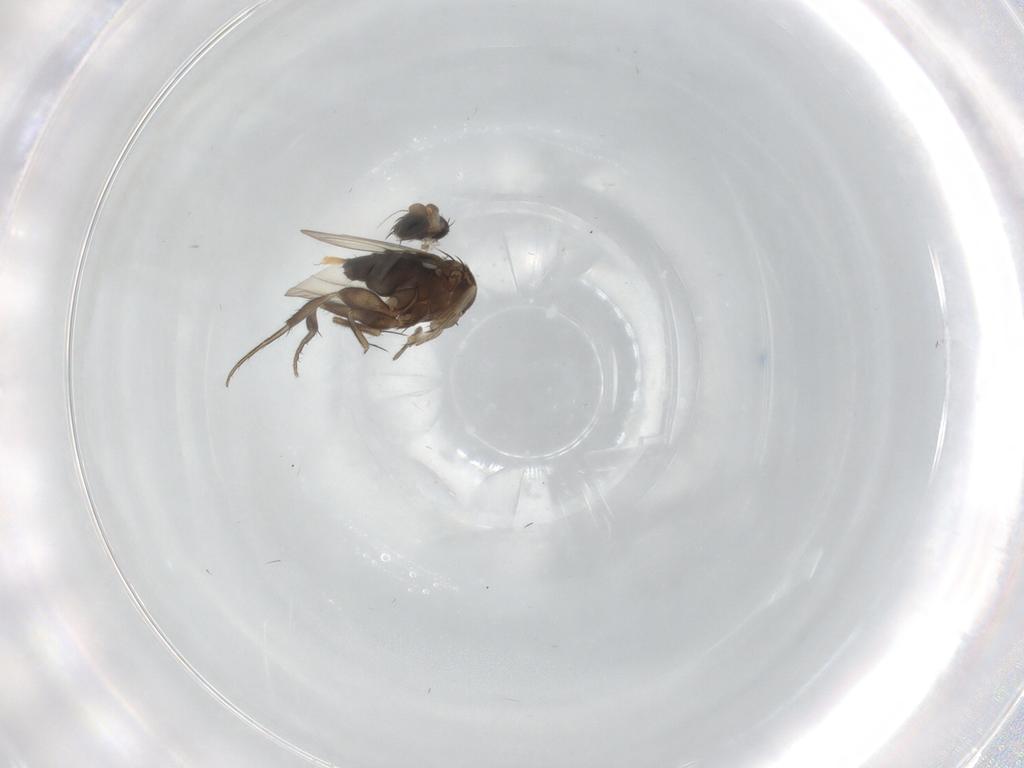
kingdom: Animalia
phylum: Arthropoda
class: Insecta
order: Diptera
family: Phoridae
